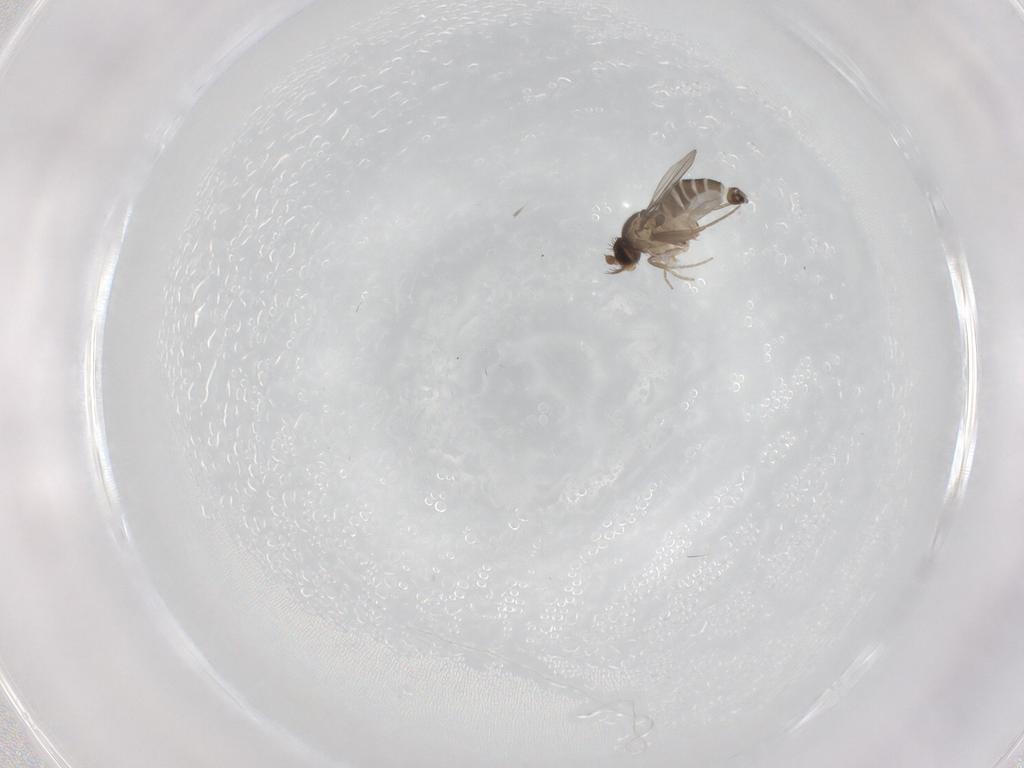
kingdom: Animalia
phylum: Arthropoda
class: Insecta
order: Diptera
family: Phoridae
